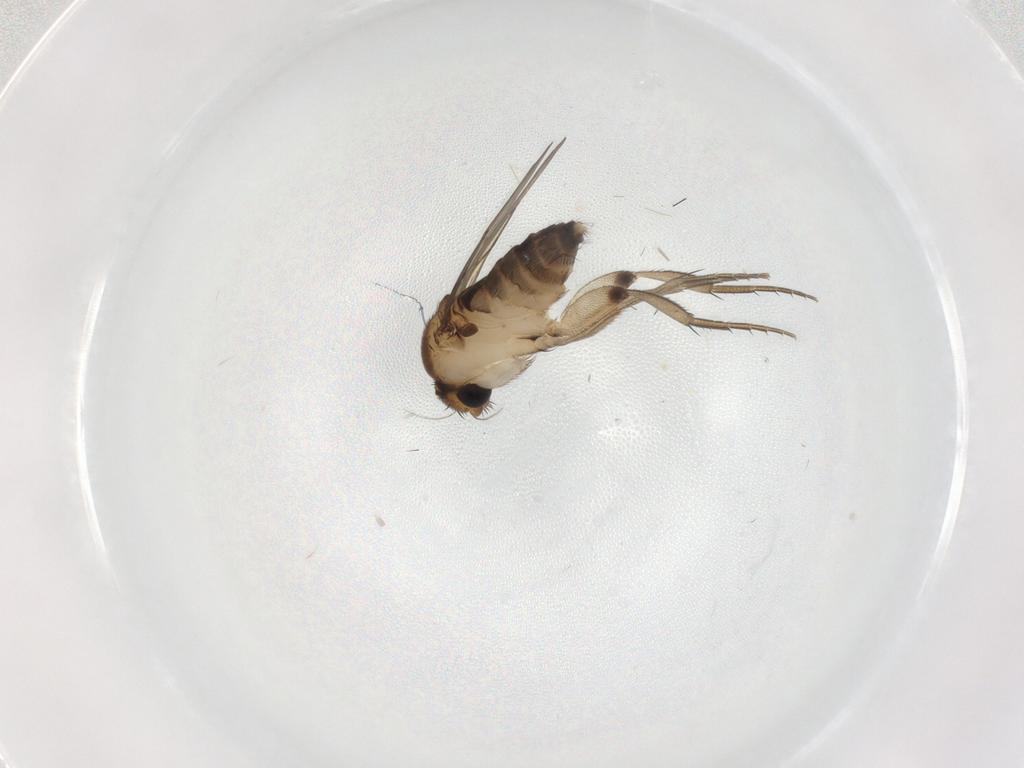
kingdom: Animalia
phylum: Arthropoda
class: Insecta
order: Diptera
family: Phoridae
